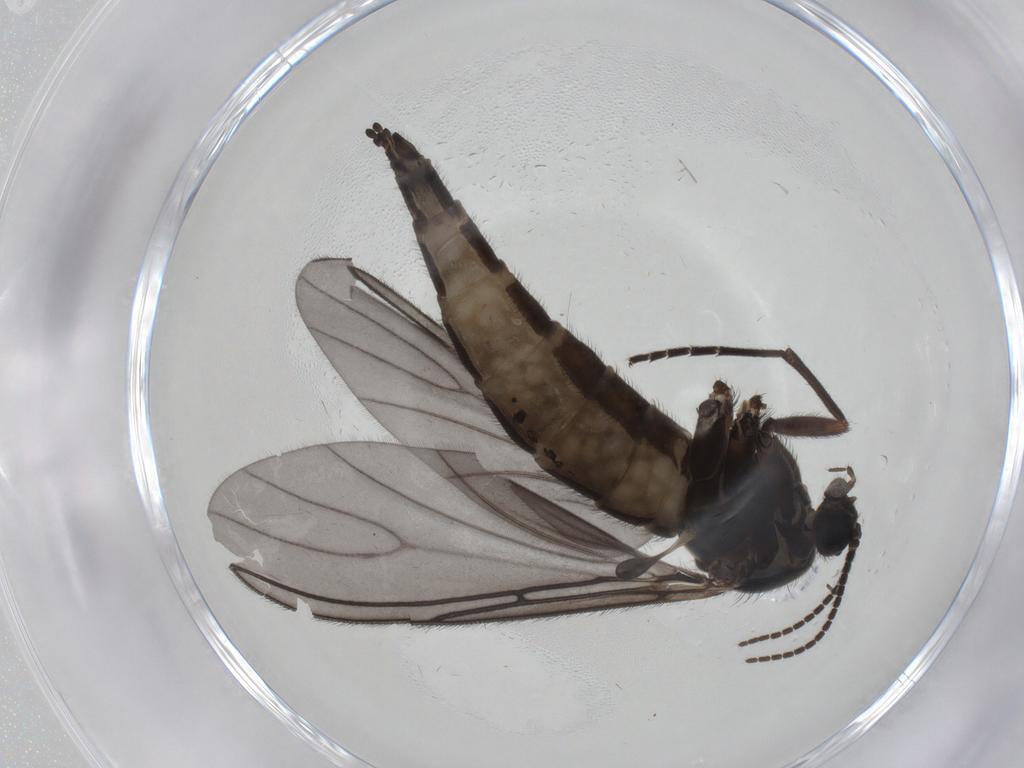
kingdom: Animalia
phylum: Arthropoda
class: Insecta
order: Diptera
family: Sciaridae
